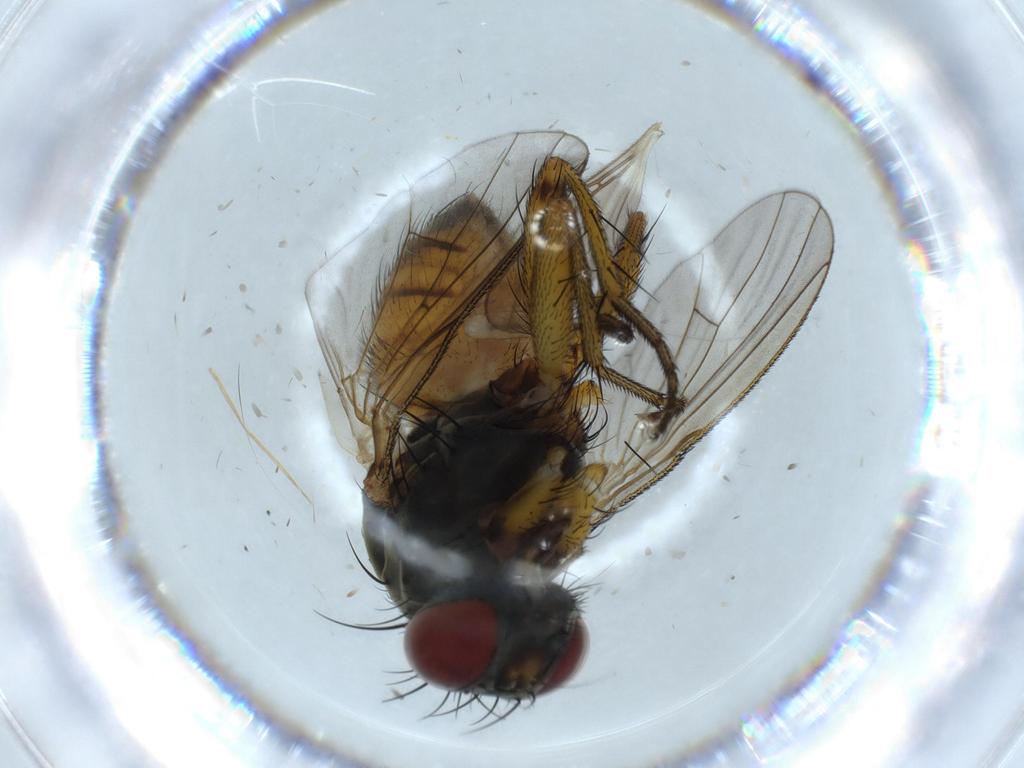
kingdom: Animalia
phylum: Arthropoda
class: Insecta
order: Diptera
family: Muscidae
